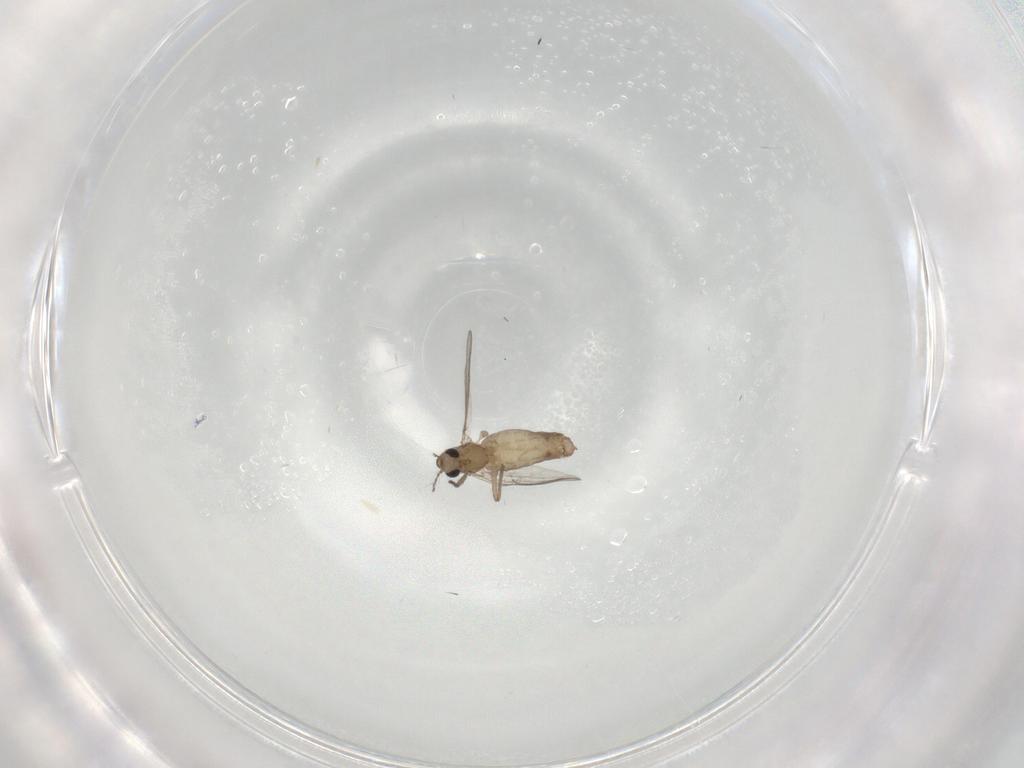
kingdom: Animalia
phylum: Arthropoda
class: Insecta
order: Diptera
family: Chironomidae
